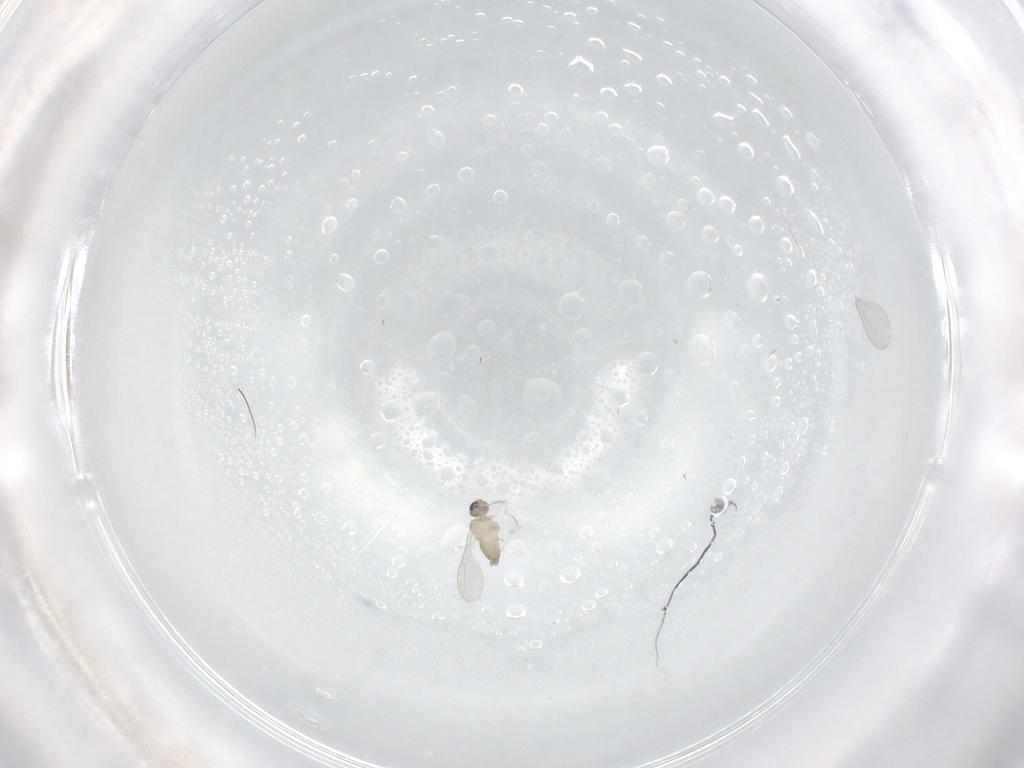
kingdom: Animalia
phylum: Arthropoda
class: Insecta
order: Diptera
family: Cecidomyiidae
